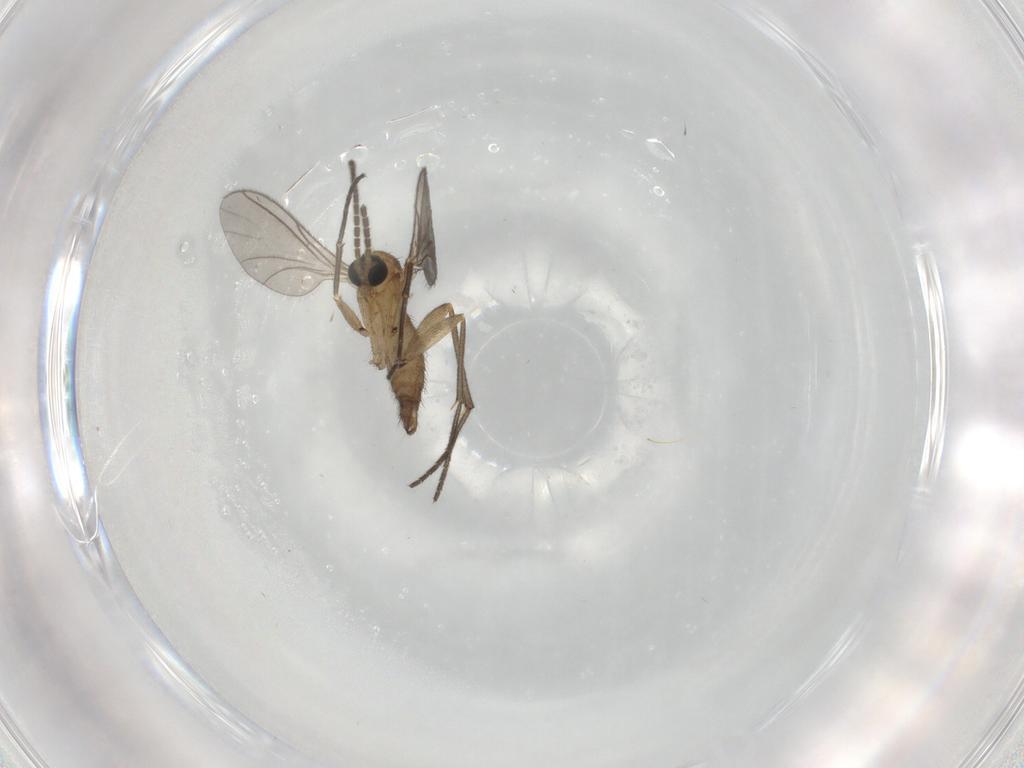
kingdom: Animalia
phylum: Arthropoda
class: Insecta
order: Diptera
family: Sciaridae
